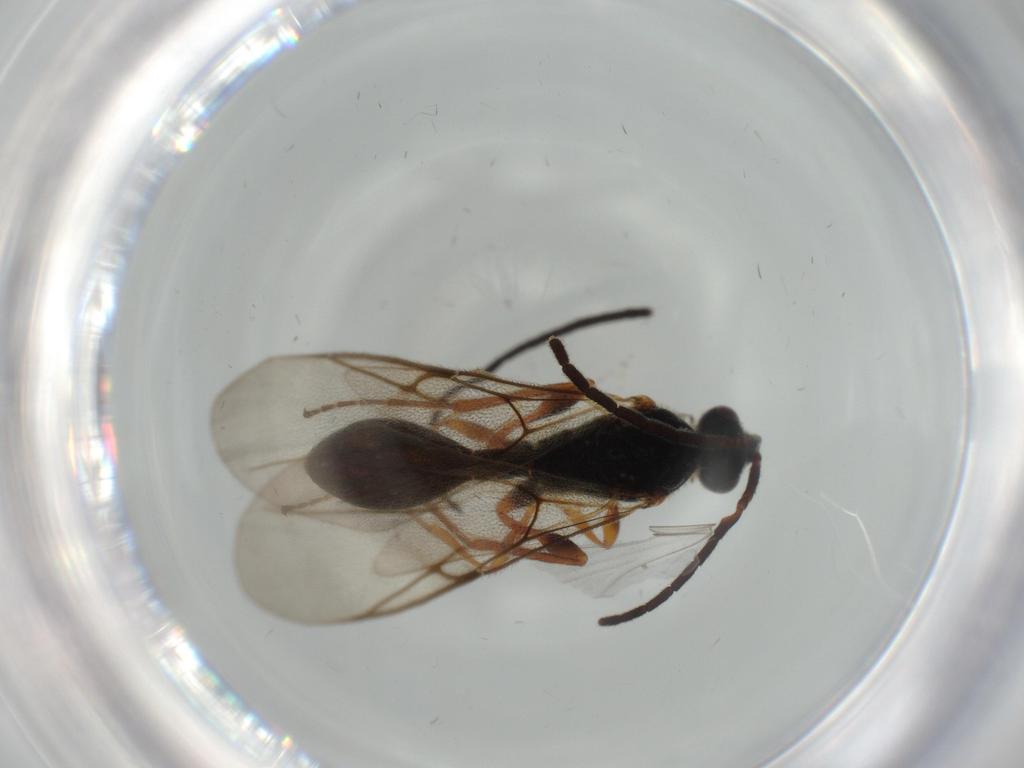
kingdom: Animalia
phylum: Arthropoda
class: Insecta
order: Hymenoptera
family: Braconidae
